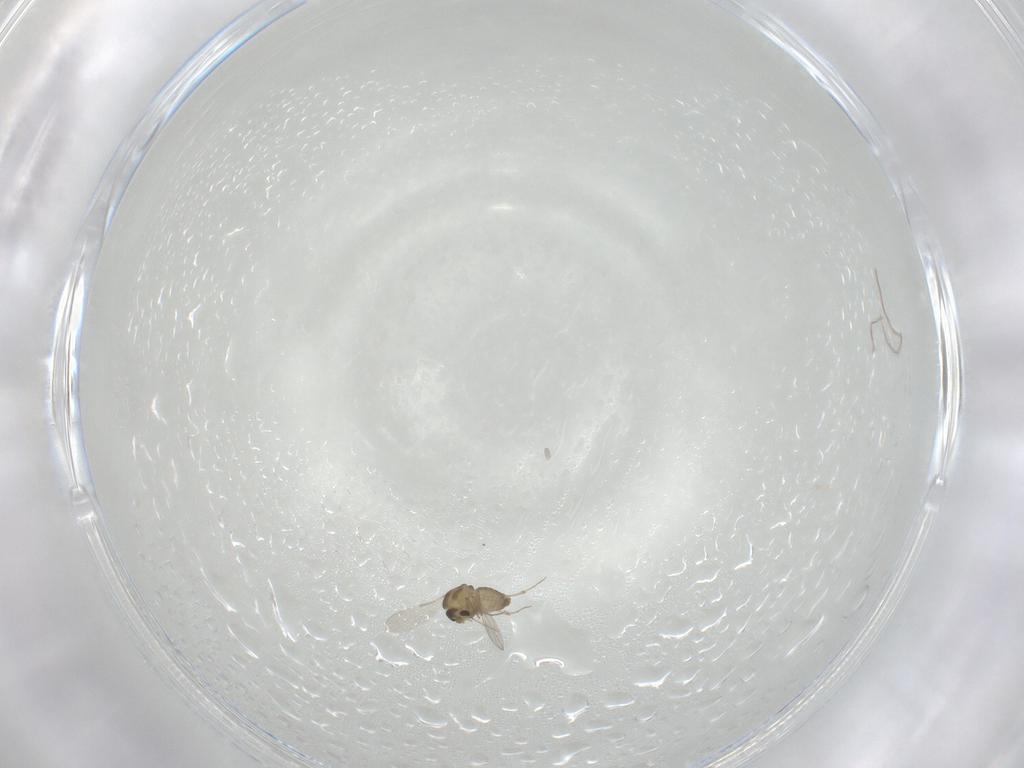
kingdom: Animalia
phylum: Arthropoda
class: Insecta
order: Diptera
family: Chironomidae
